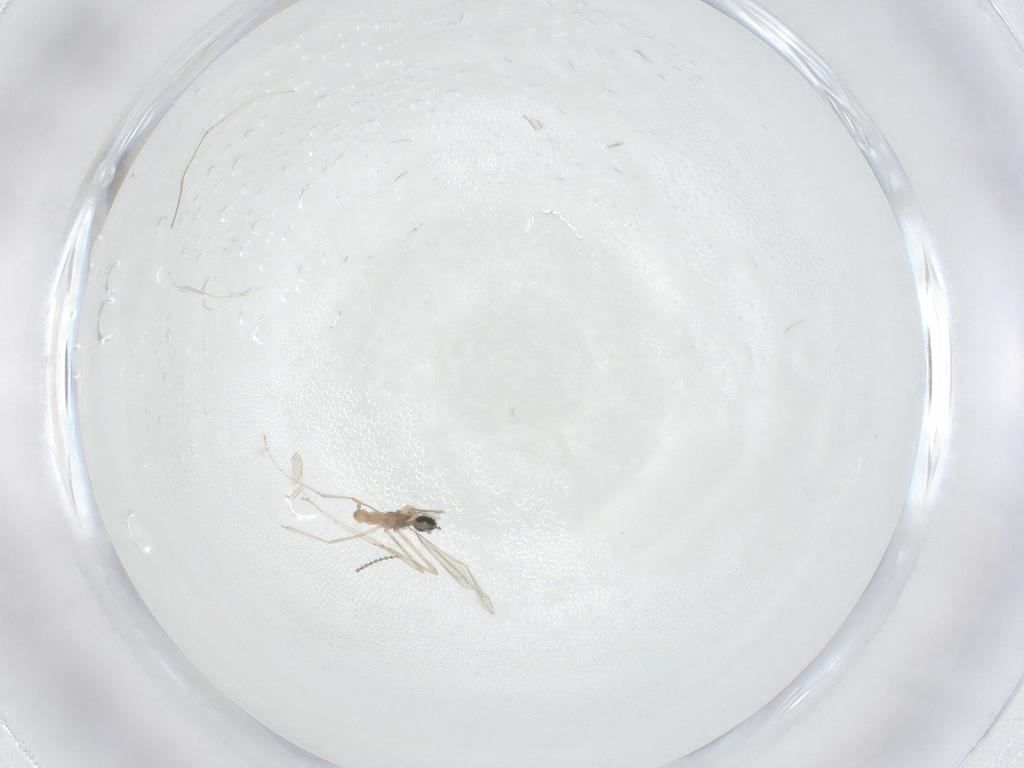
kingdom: Animalia
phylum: Arthropoda
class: Insecta
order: Diptera
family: Cecidomyiidae
